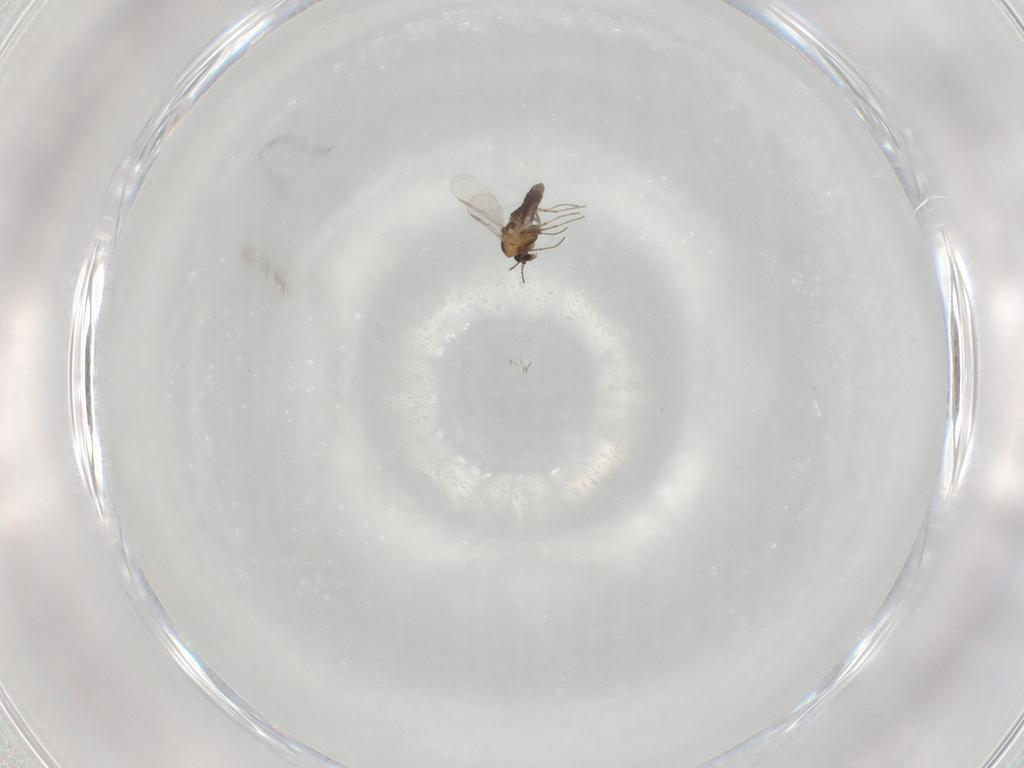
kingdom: Animalia
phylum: Arthropoda
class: Insecta
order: Diptera
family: Chironomidae
